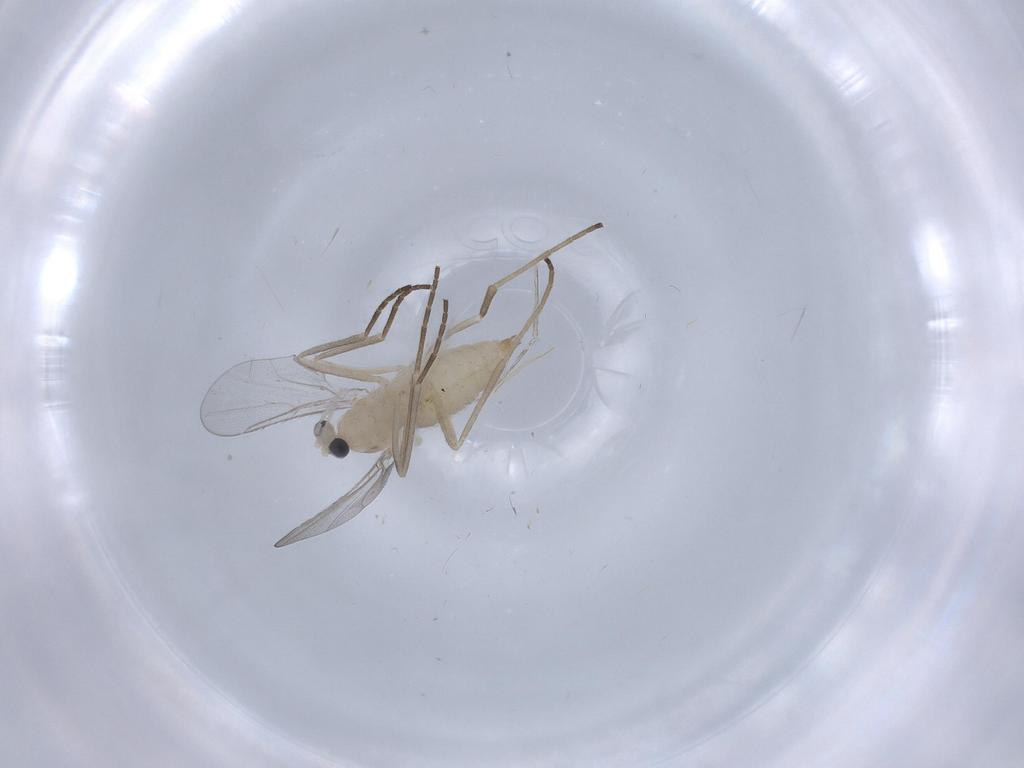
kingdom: Animalia
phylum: Arthropoda
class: Insecta
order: Diptera
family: Cecidomyiidae
